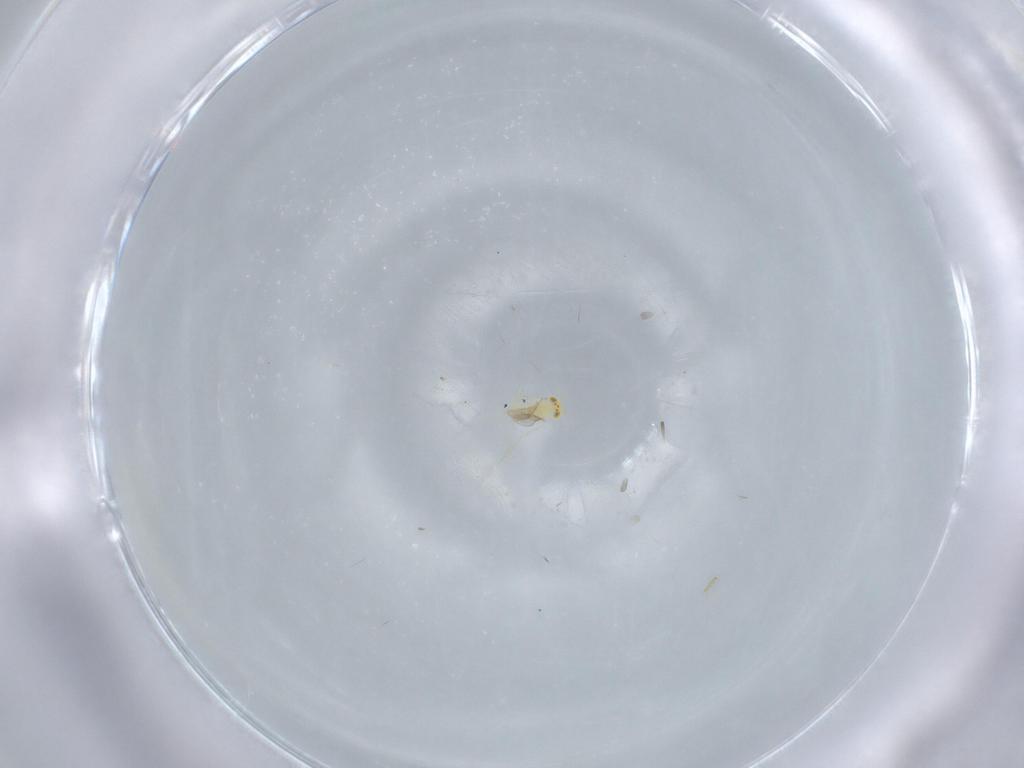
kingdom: Animalia
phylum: Arthropoda
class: Insecta
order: Hymenoptera
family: Aphelinidae
